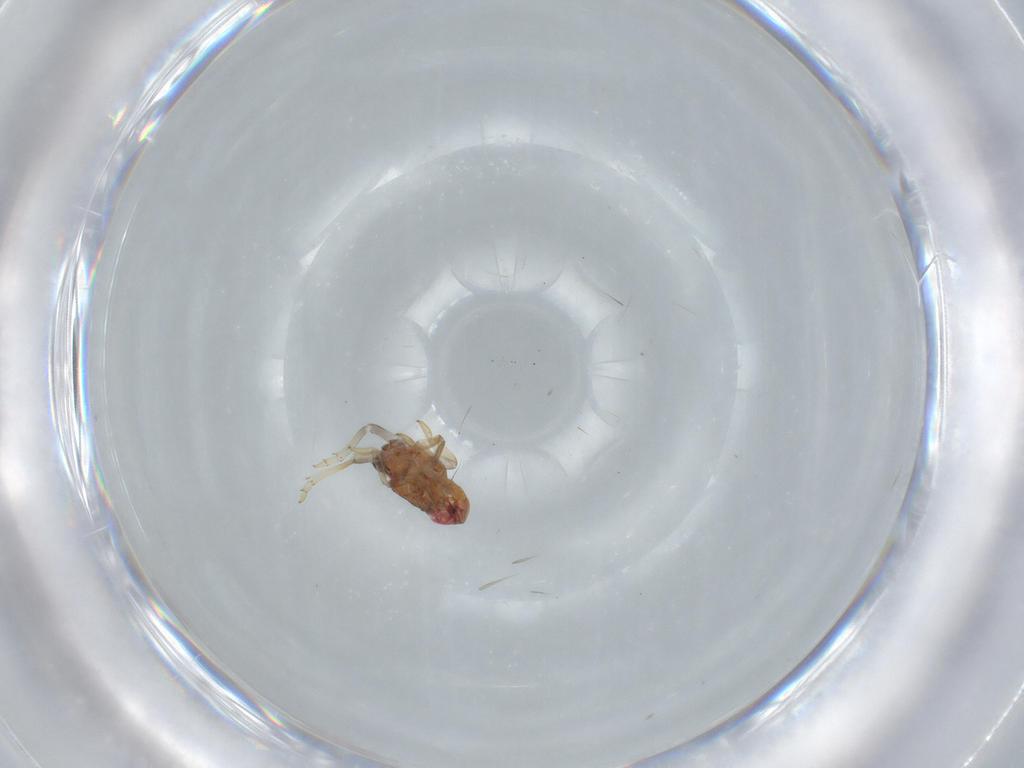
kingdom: Animalia
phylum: Arthropoda
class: Insecta
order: Hemiptera
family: Issidae
